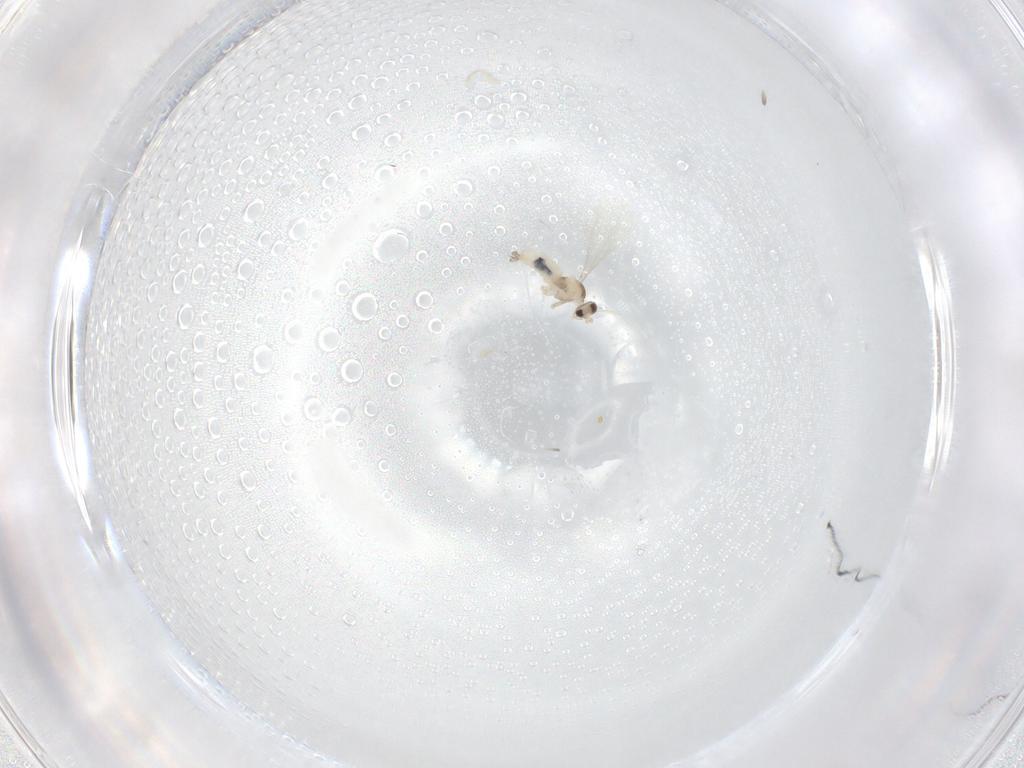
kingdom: Animalia
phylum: Arthropoda
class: Insecta
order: Diptera
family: Cecidomyiidae
